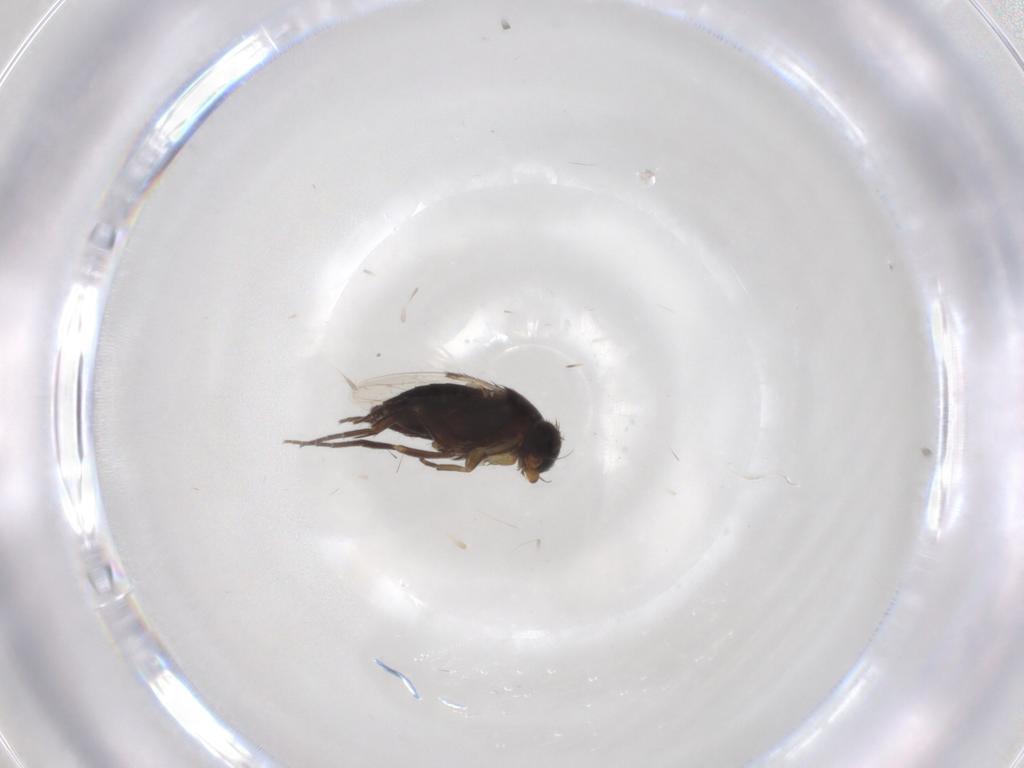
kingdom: Animalia
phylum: Arthropoda
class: Insecta
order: Diptera
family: Phoridae
